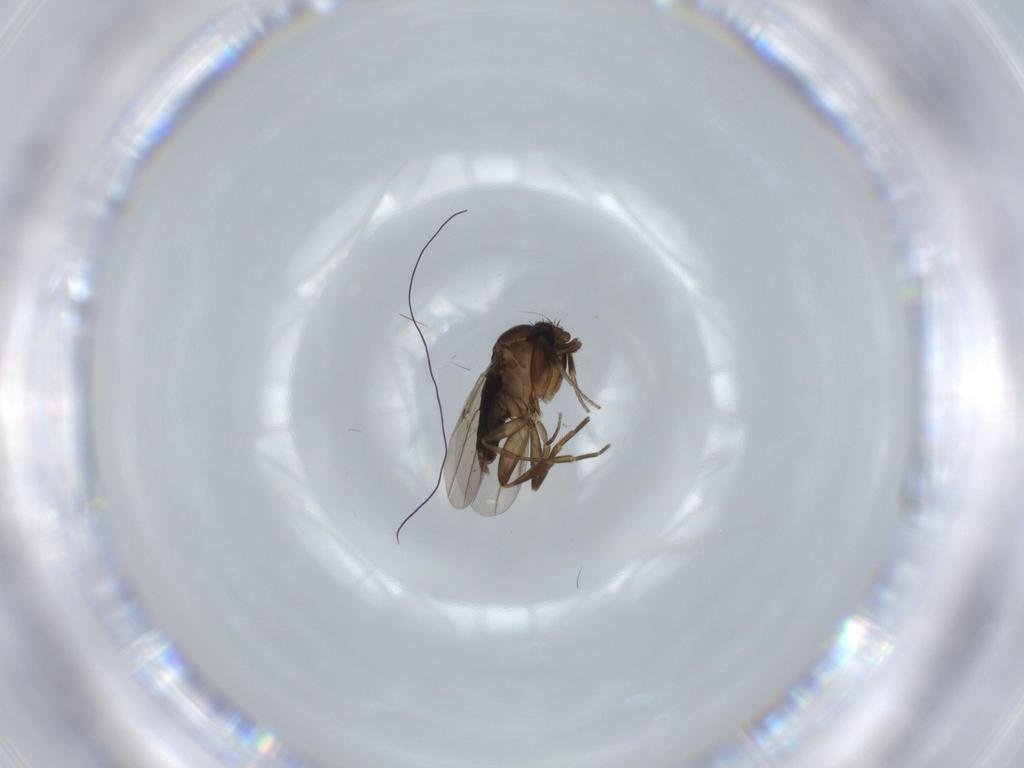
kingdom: Animalia
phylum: Arthropoda
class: Insecta
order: Diptera
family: Phoridae
